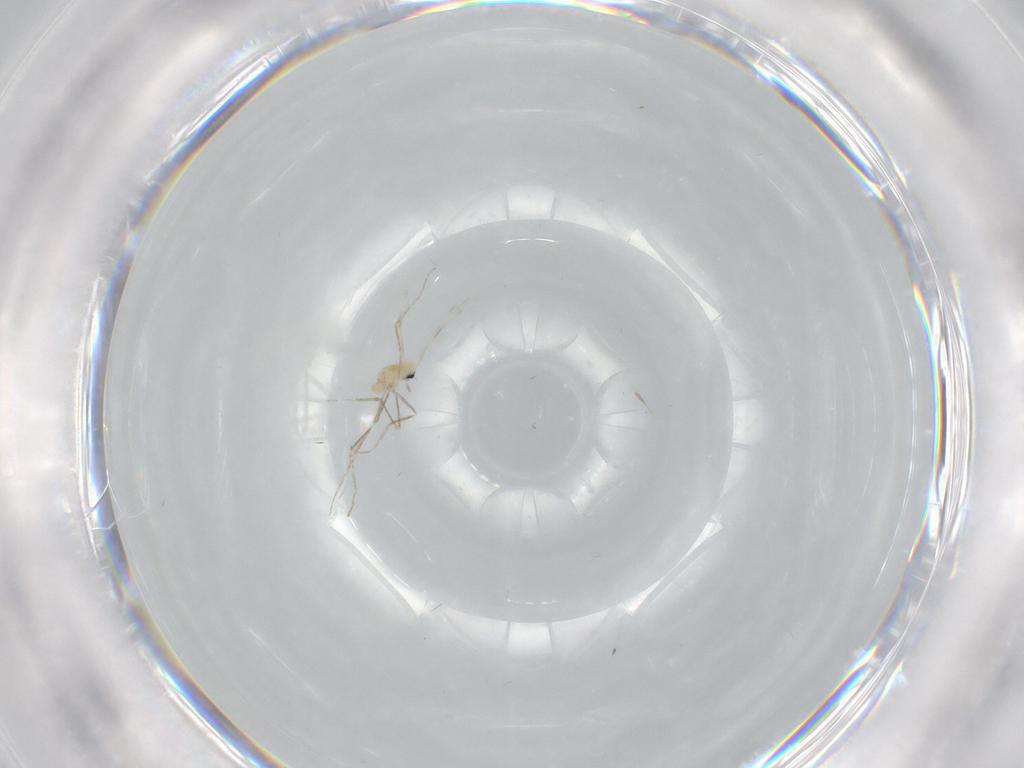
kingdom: Animalia
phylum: Arthropoda
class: Insecta
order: Diptera
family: Cecidomyiidae
